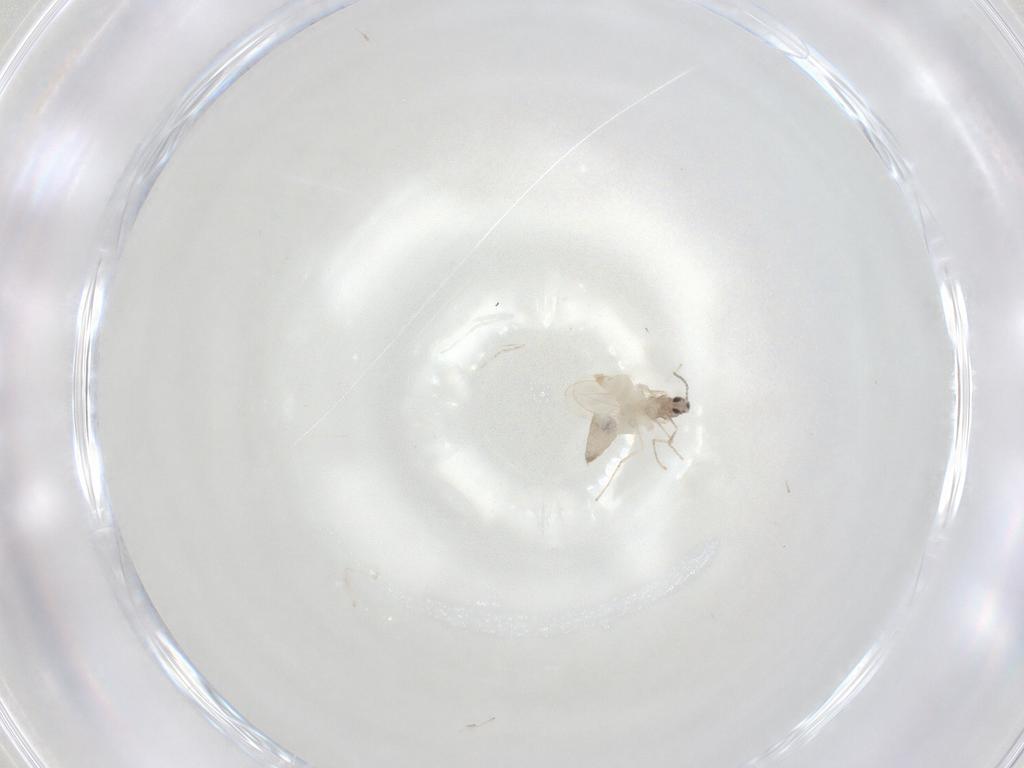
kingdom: Animalia
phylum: Arthropoda
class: Insecta
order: Diptera
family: Cecidomyiidae
